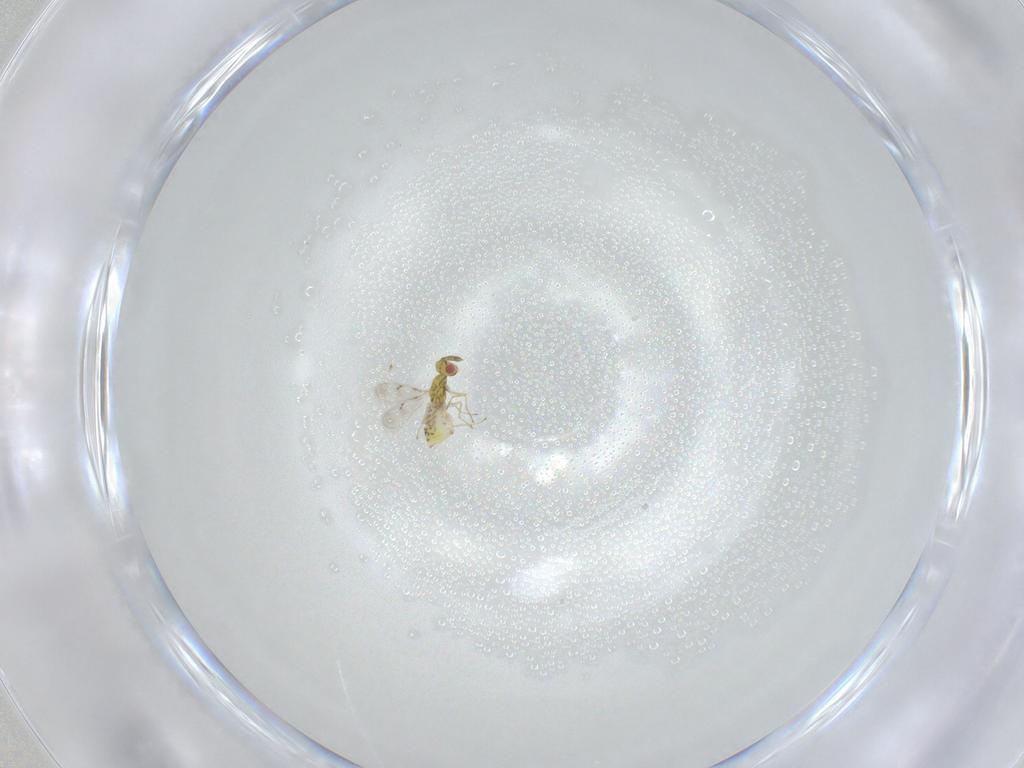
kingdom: Animalia
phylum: Arthropoda
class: Insecta
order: Hymenoptera
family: Eulophidae
